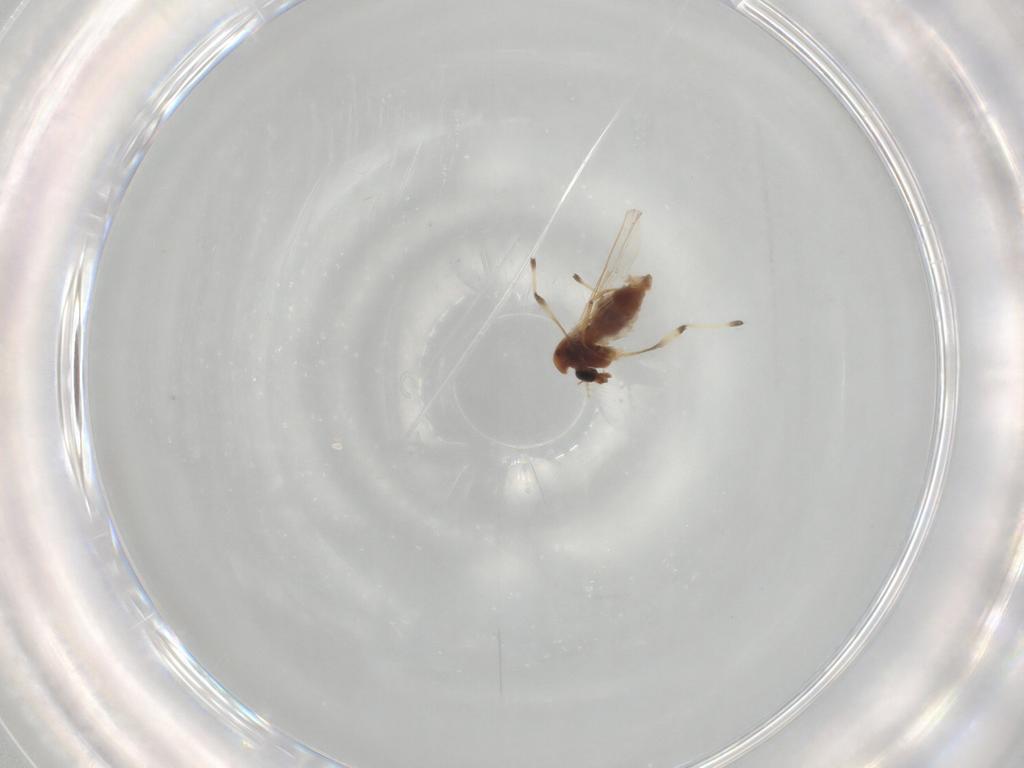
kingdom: Animalia
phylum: Arthropoda
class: Insecta
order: Diptera
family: Chironomidae
